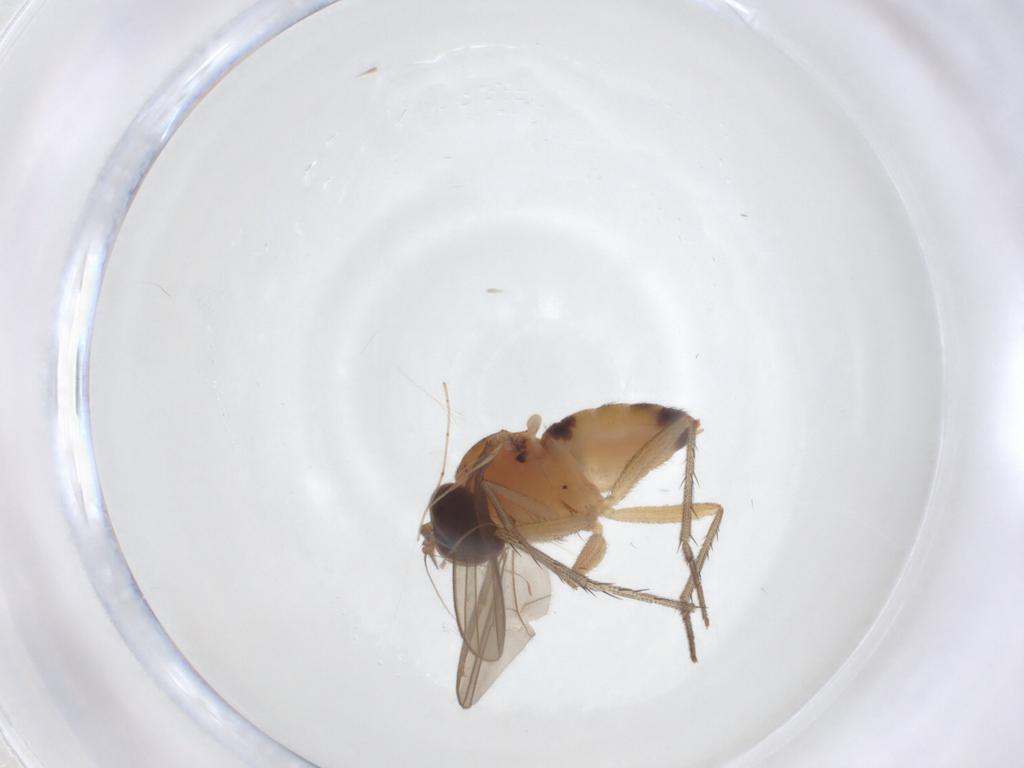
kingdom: Animalia
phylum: Arthropoda
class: Insecta
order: Diptera
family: Dolichopodidae
